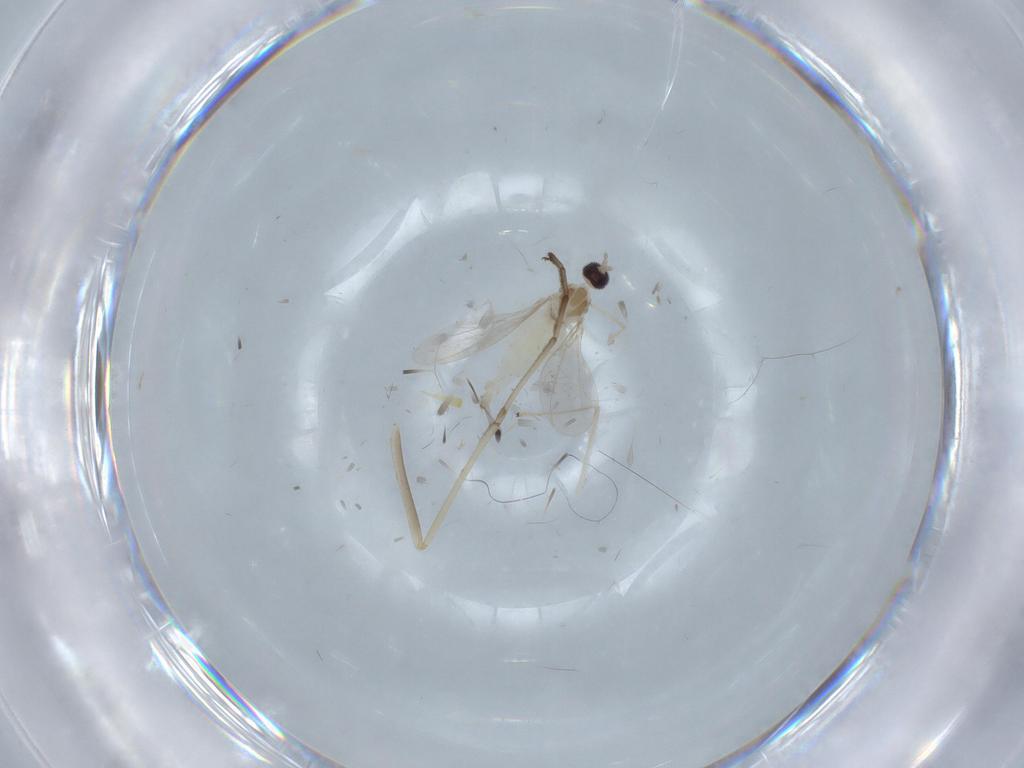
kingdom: Animalia
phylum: Arthropoda
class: Insecta
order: Diptera
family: Cecidomyiidae
